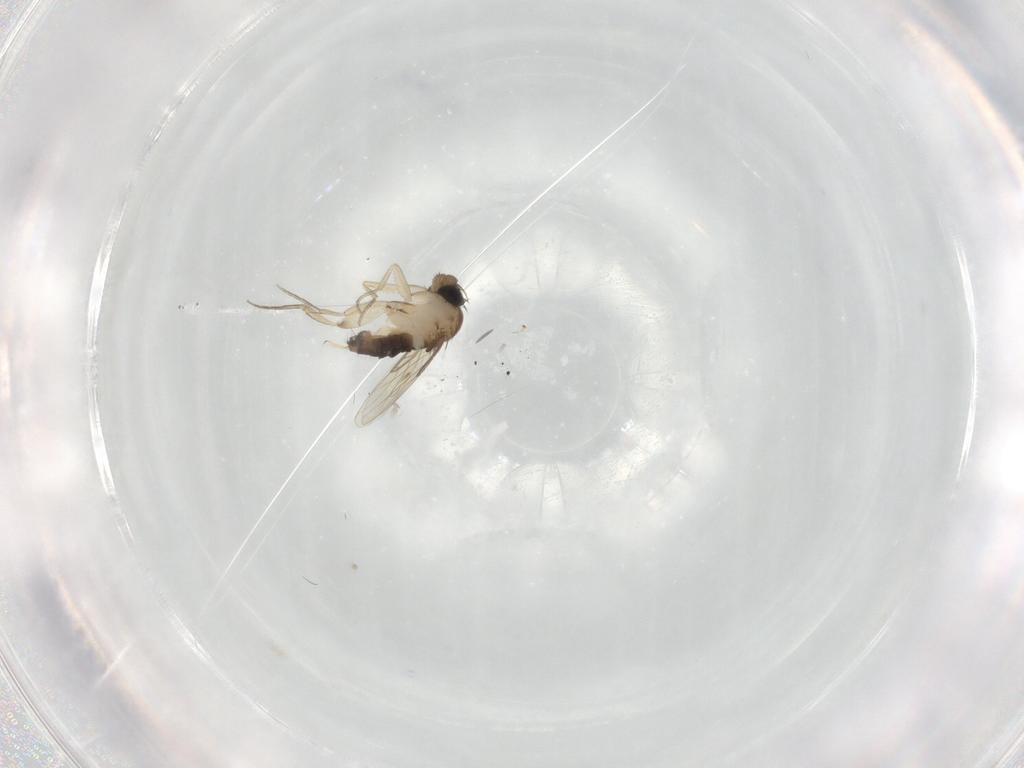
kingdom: Animalia
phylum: Arthropoda
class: Insecta
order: Diptera
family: Phoridae
